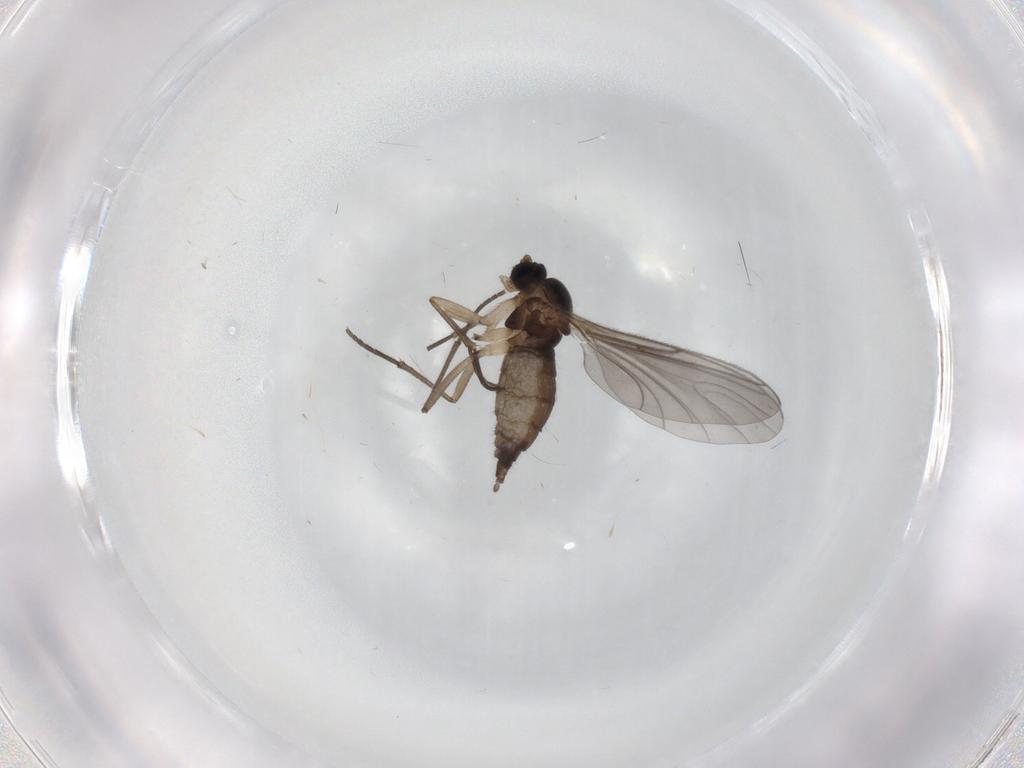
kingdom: Animalia
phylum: Arthropoda
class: Insecta
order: Diptera
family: Sciaridae
